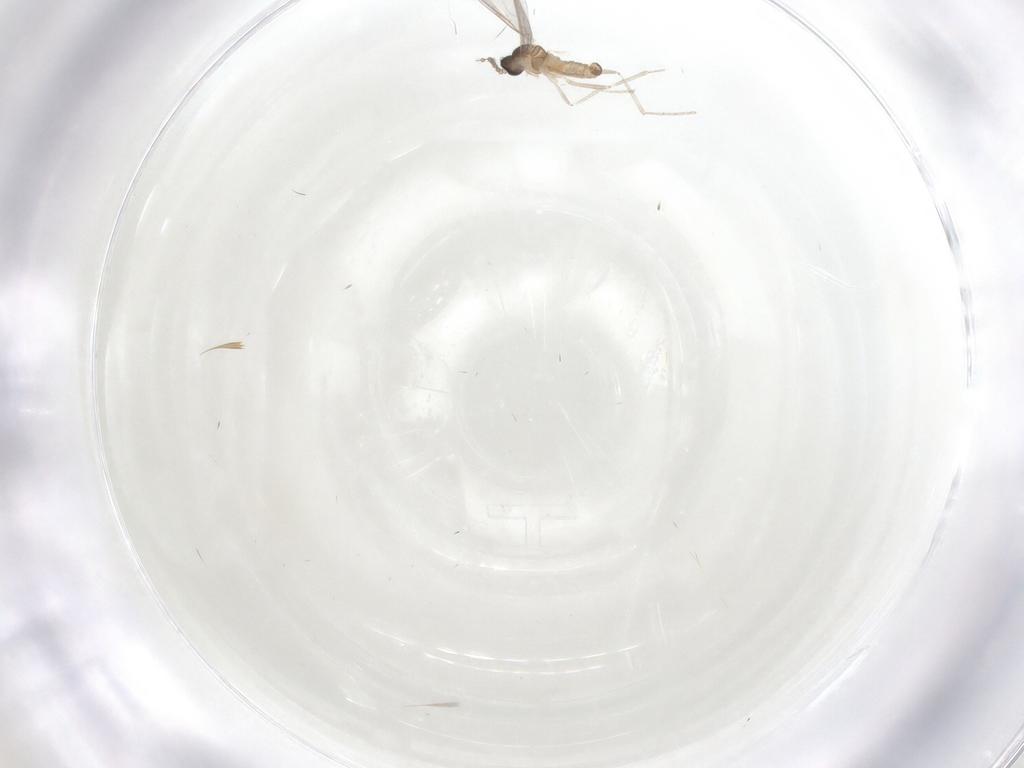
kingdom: Animalia
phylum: Arthropoda
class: Insecta
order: Diptera
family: Cecidomyiidae
